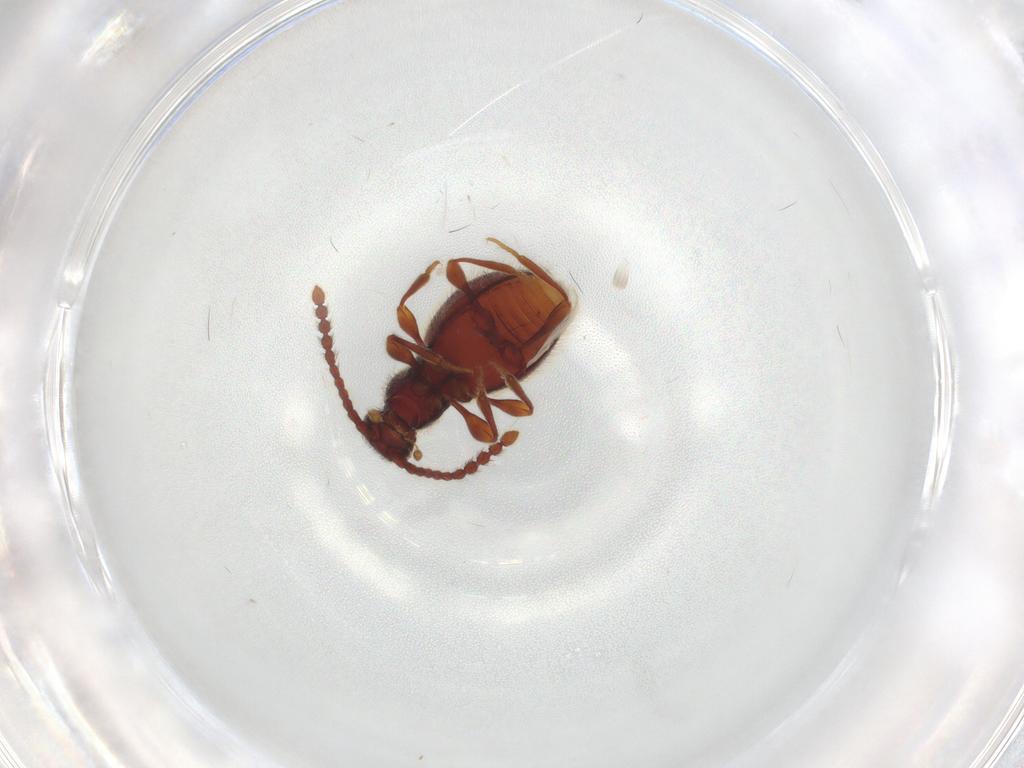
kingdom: Animalia
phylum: Arthropoda
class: Insecta
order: Coleoptera
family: Staphylinidae
